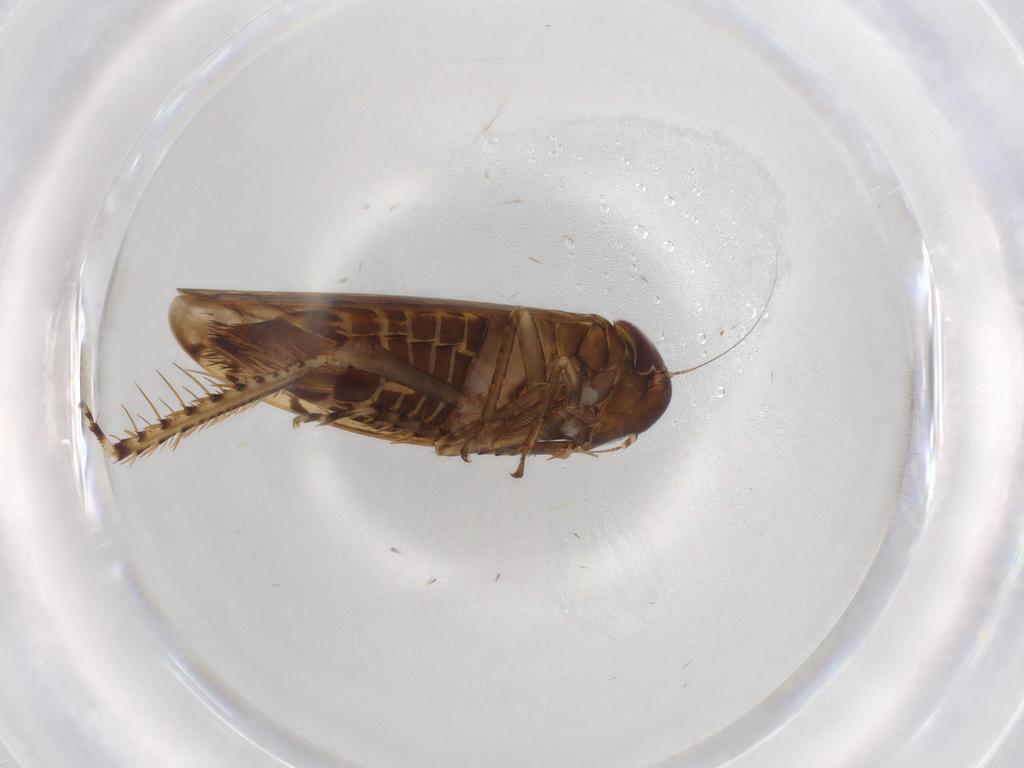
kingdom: Animalia
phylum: Arthropoda
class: Insecta
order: Hemiptera
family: Cicadellidae
